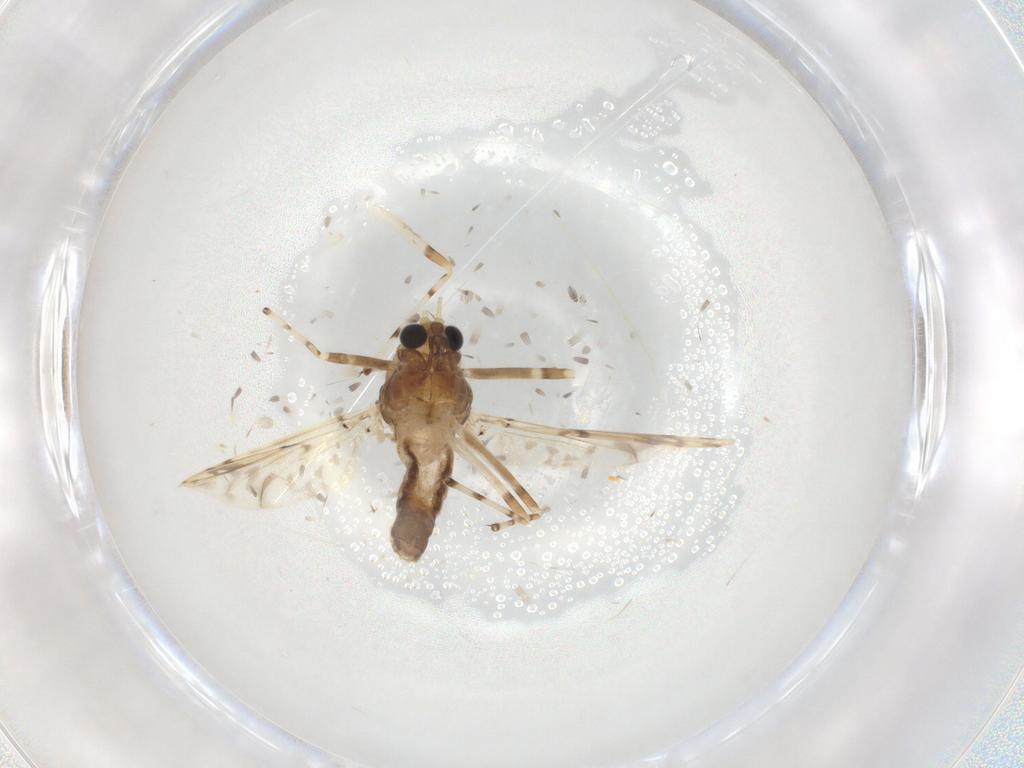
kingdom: Animalia
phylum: Arthropoda
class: Insecta
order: Diptera
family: Chironomidae
